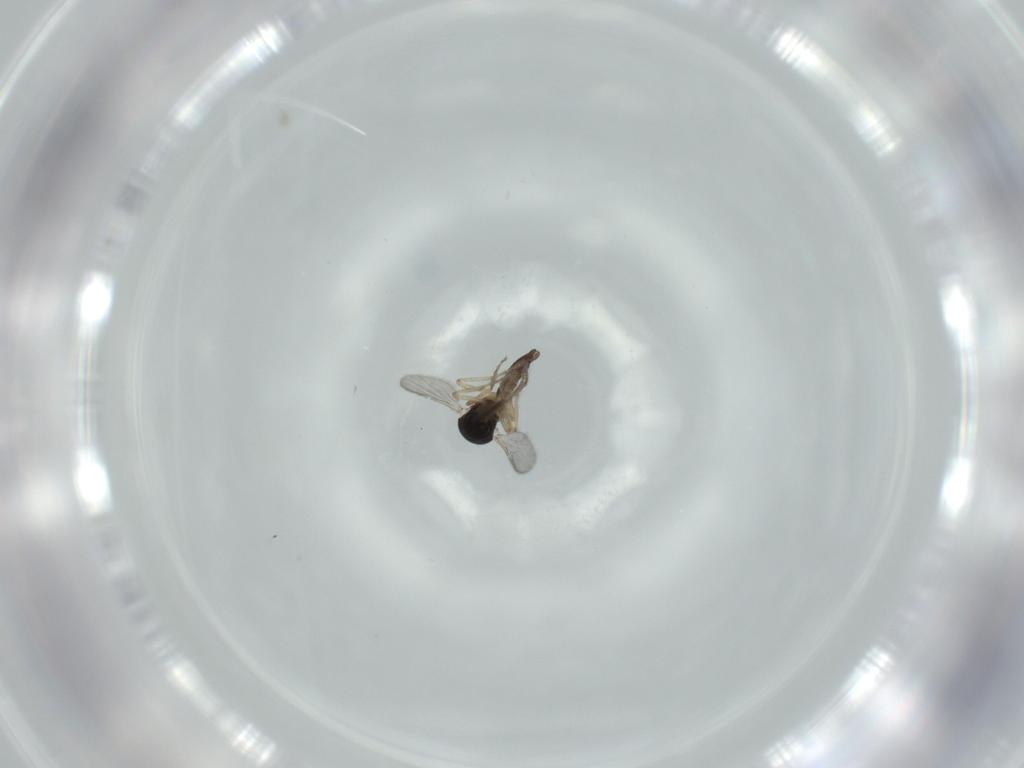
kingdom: Animalia
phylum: Arthropoda
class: Insecta
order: Diptera
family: Ceratopogonidae
